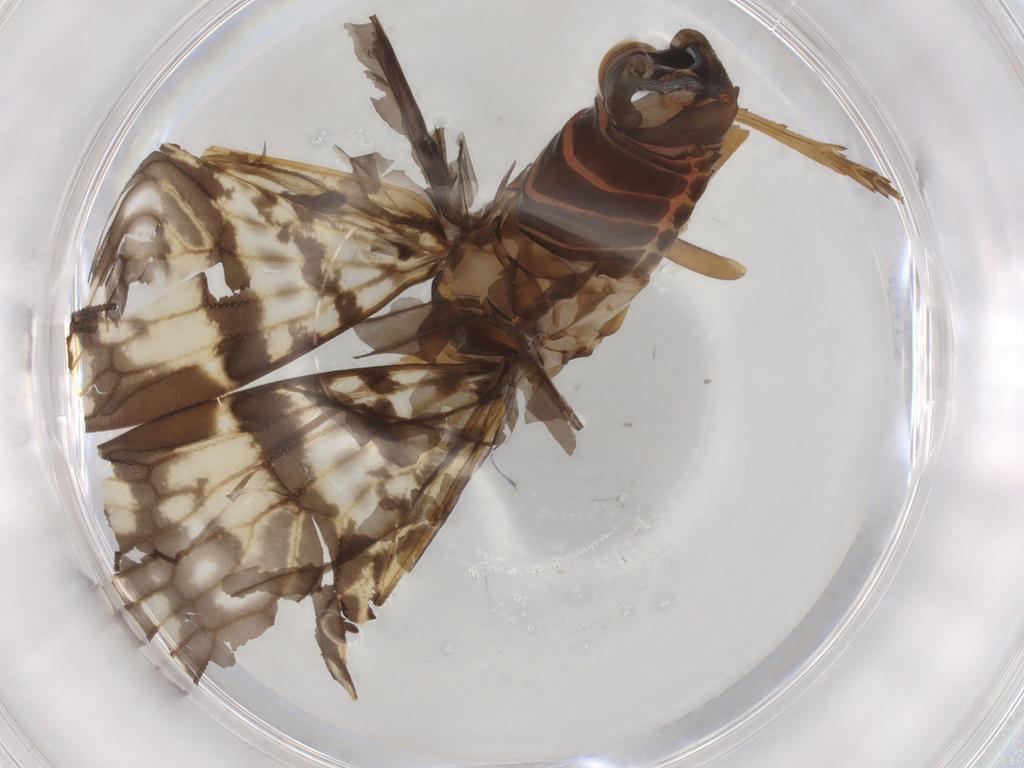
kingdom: Animalia
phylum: Arthropoda
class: Insecta
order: Hemiptera
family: Cixiidae
